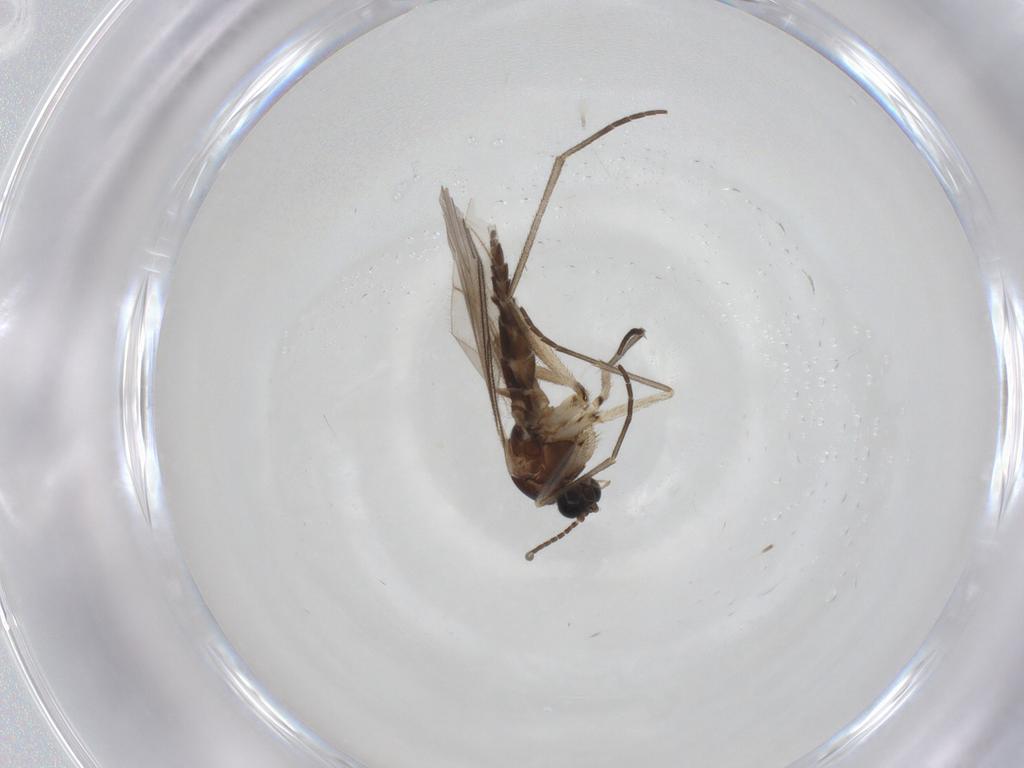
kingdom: Animalia
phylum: Arthropoda
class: Insecta
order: Diptera
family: Sciaridae
